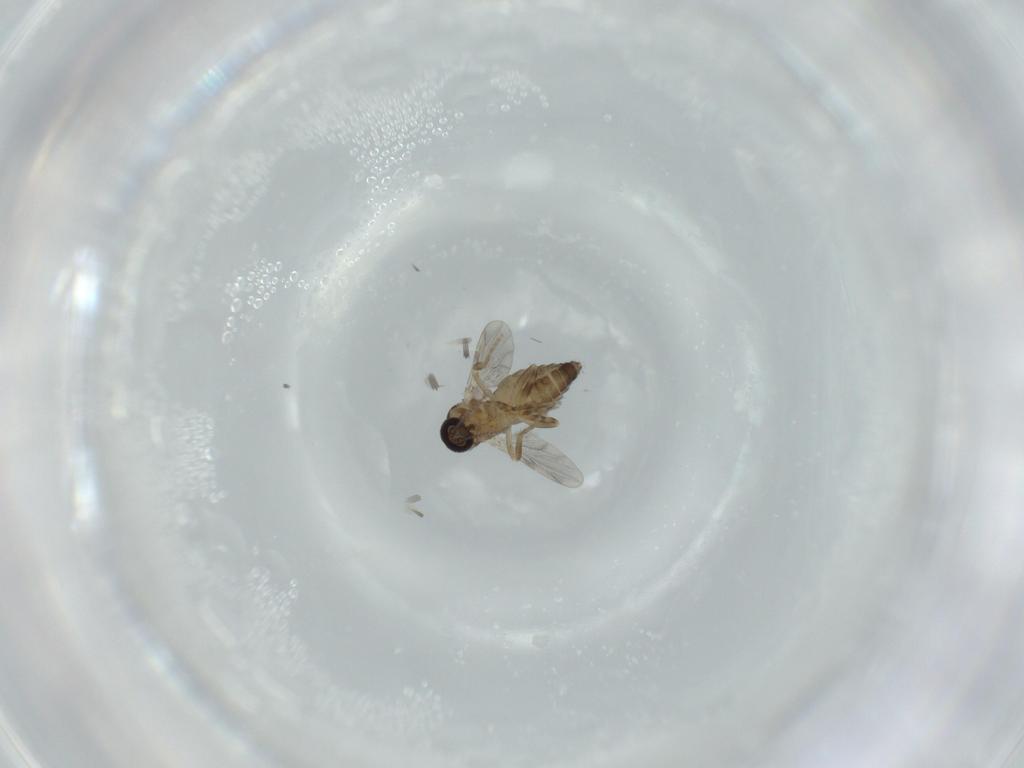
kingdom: Animalia
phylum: Arthropoda
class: Insecta
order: Diptera
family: Ceratopogonidae
